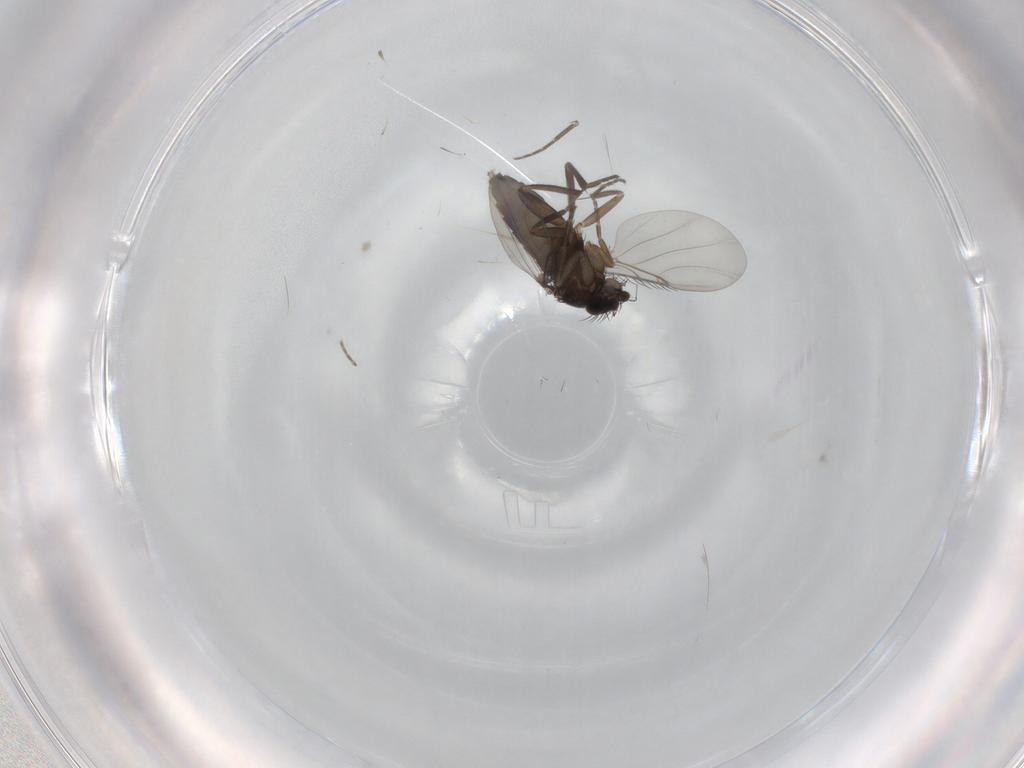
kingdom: Animalia
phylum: Arthropoda
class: Insecta
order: Diptera
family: Phoridae
